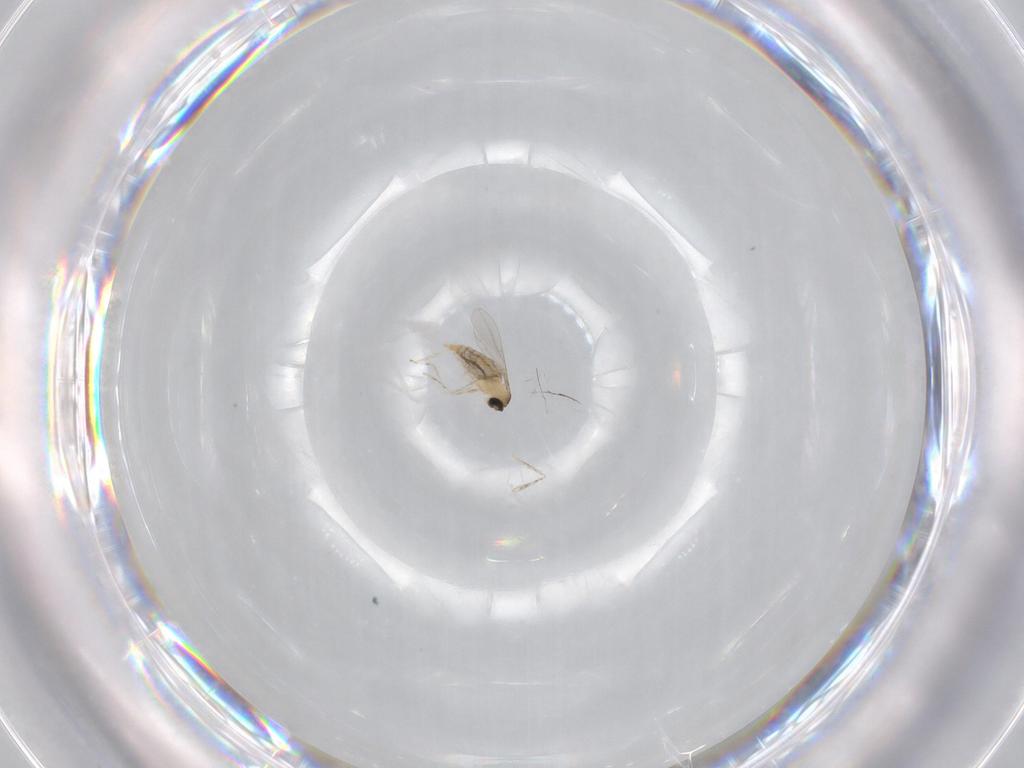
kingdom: Animalia
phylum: Arthropoda
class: Insecta
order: Diptera
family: Cecidomyiidae
